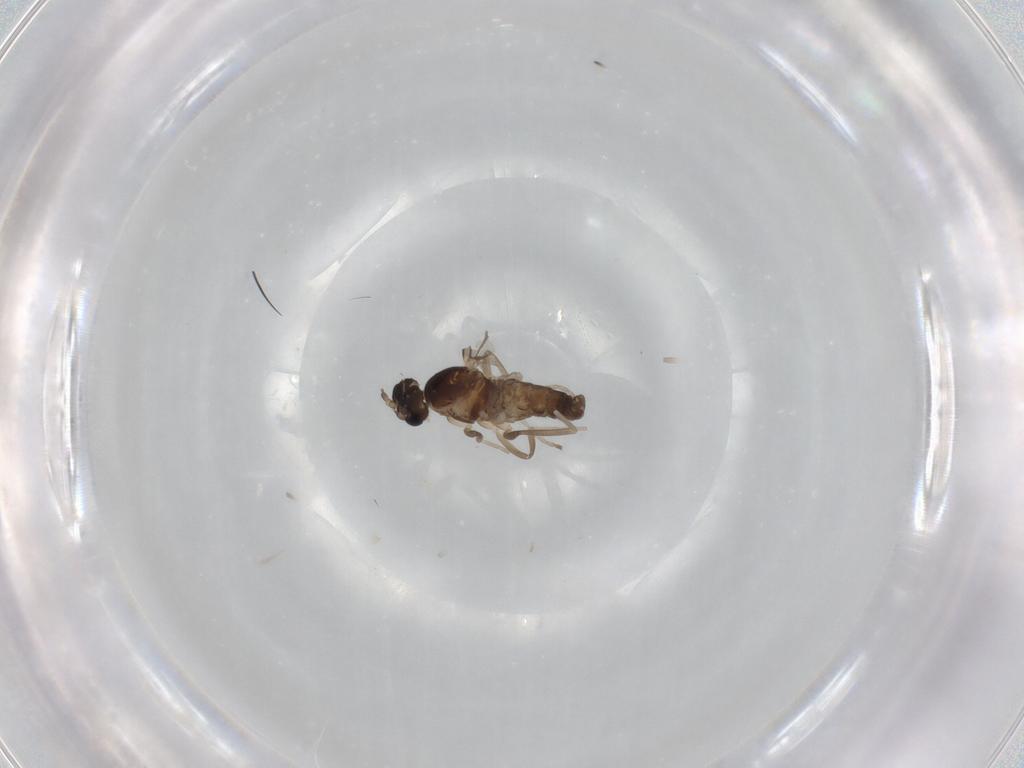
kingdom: Animalia
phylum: Arthropoda
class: Insecta
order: Diptera
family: Cecidomyiidae
